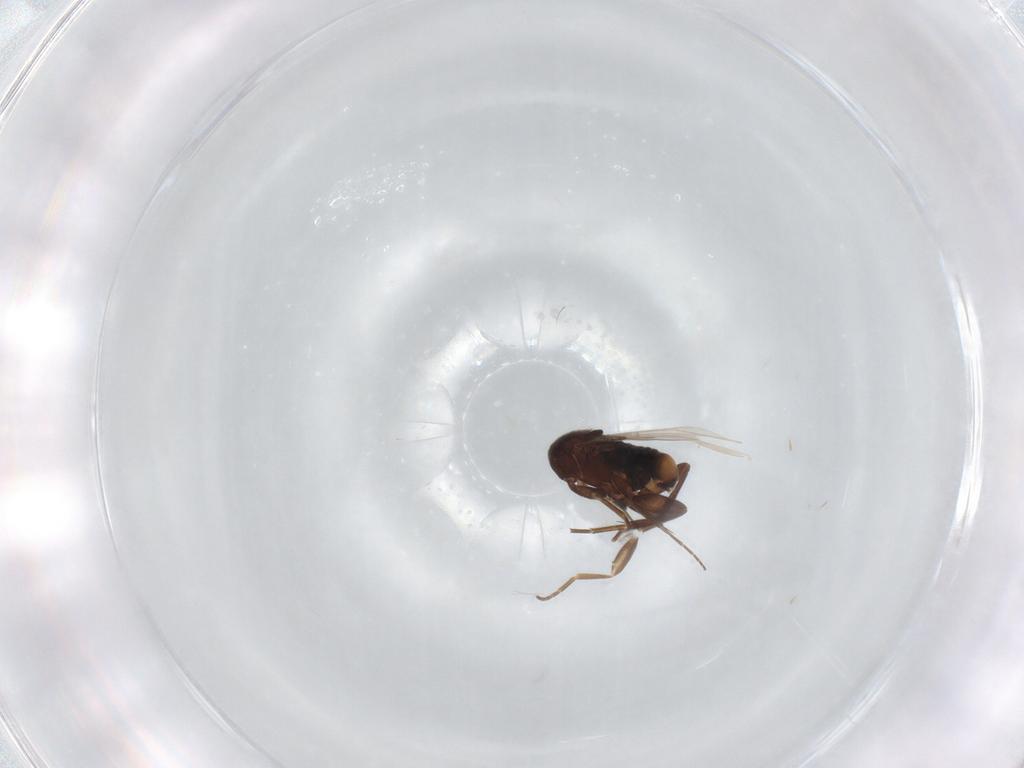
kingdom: Animalia
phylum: Arthropoda
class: Insecta
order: Diptera
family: Phoridae
